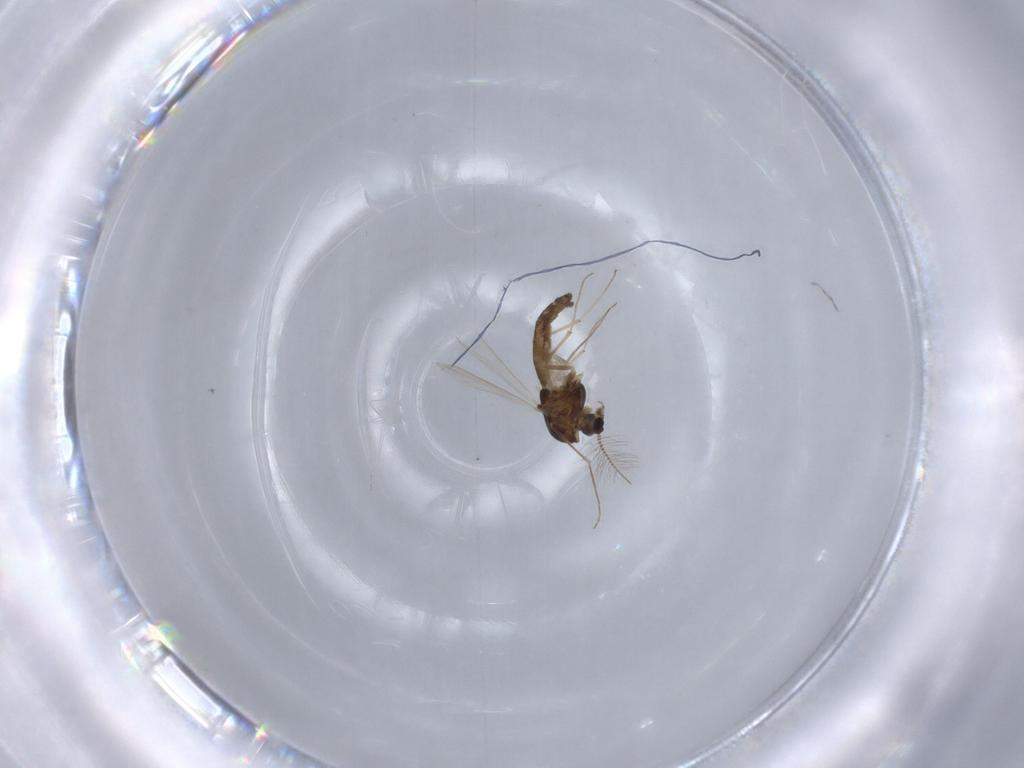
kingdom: Animalia
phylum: Arthropoda
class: Insecta
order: Diptera
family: Chironomidae
